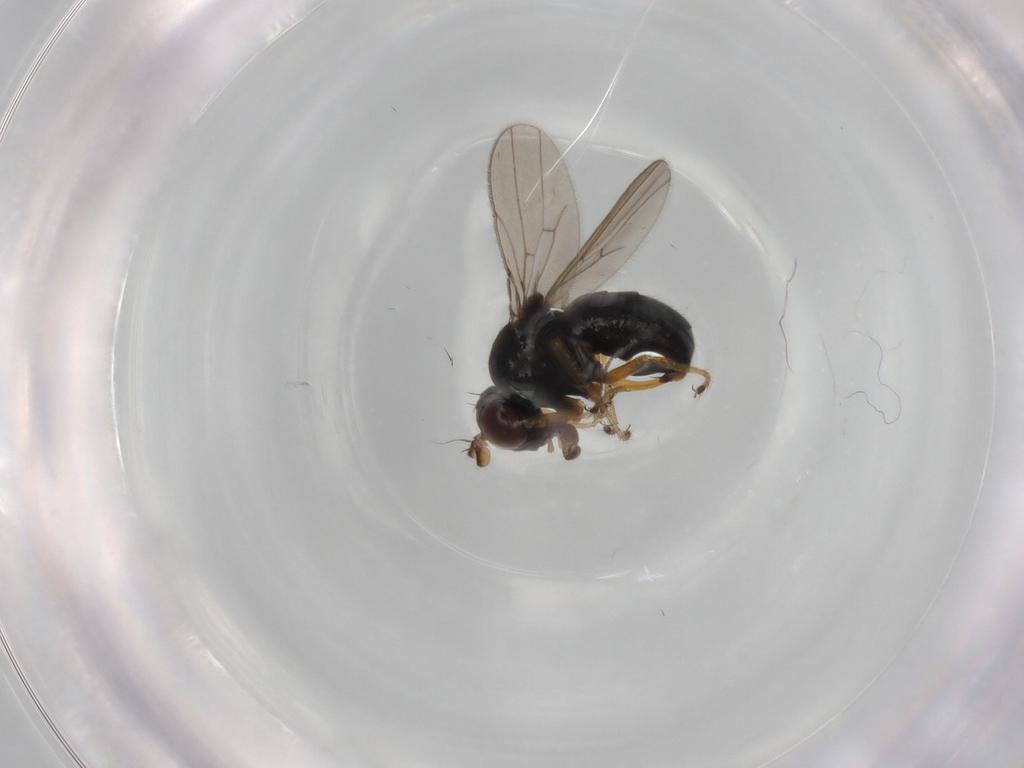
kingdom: Animalia
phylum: Arthropoda
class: Insecta
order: Diptera
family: Ephydridae
